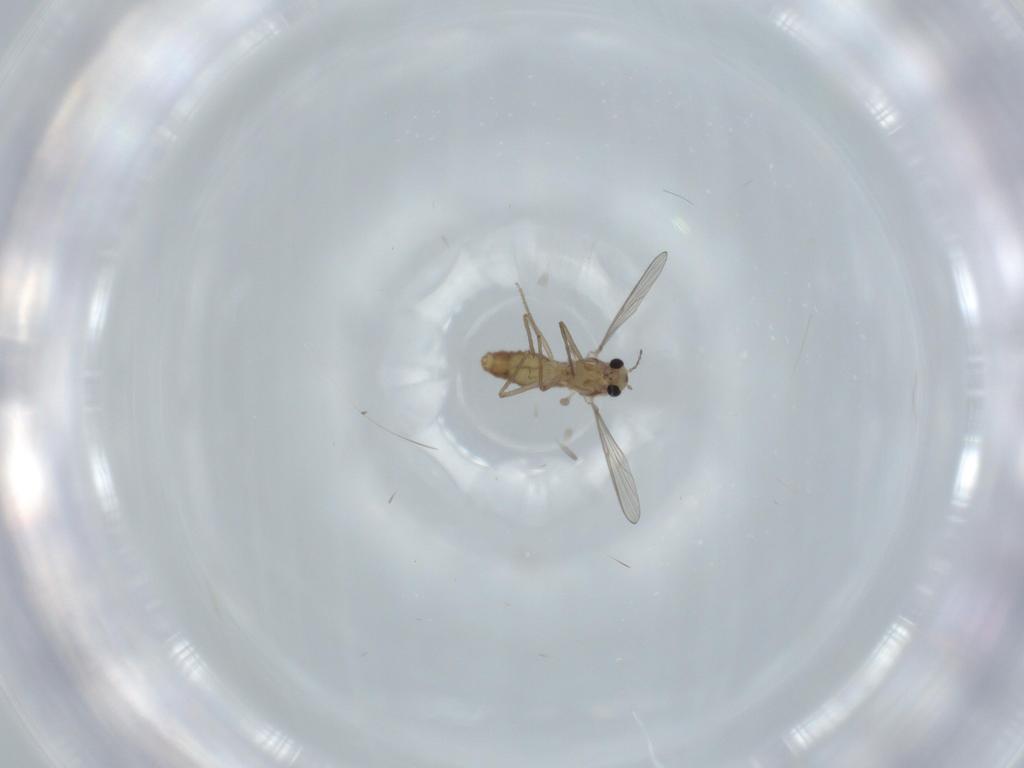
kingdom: Animalia
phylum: Arthropoda
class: Insecta
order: Diptera
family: Chironomidae
